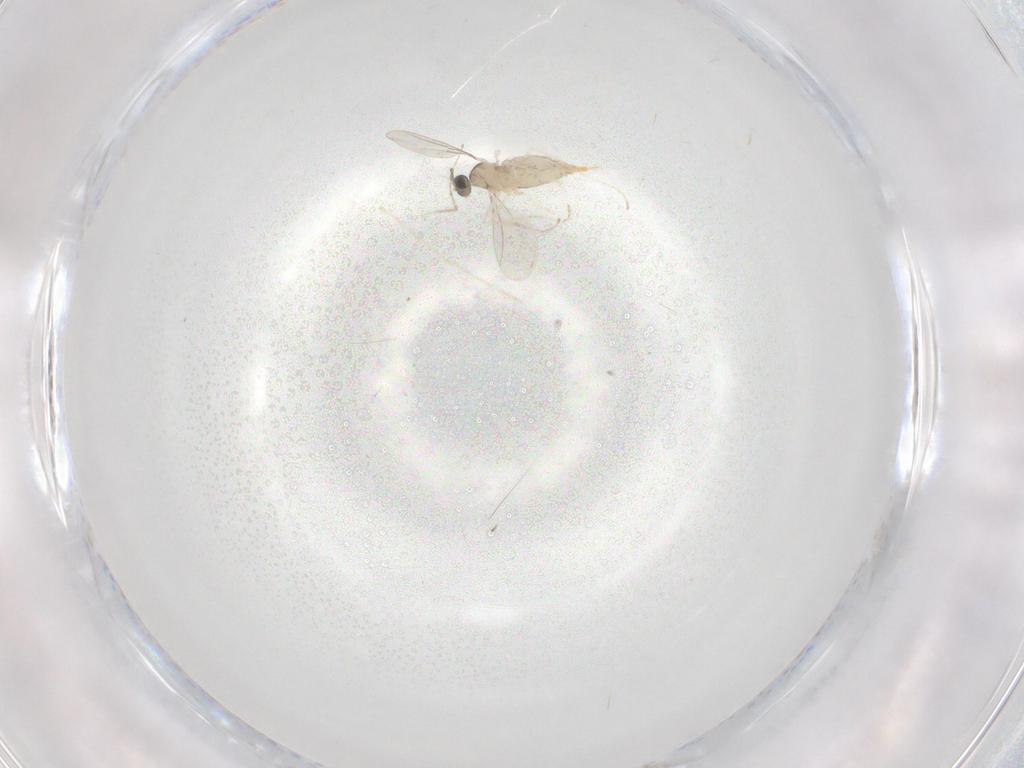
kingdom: Animalia
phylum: Arthropoda
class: Insecta
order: Diptera
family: Cecidomyiidae
